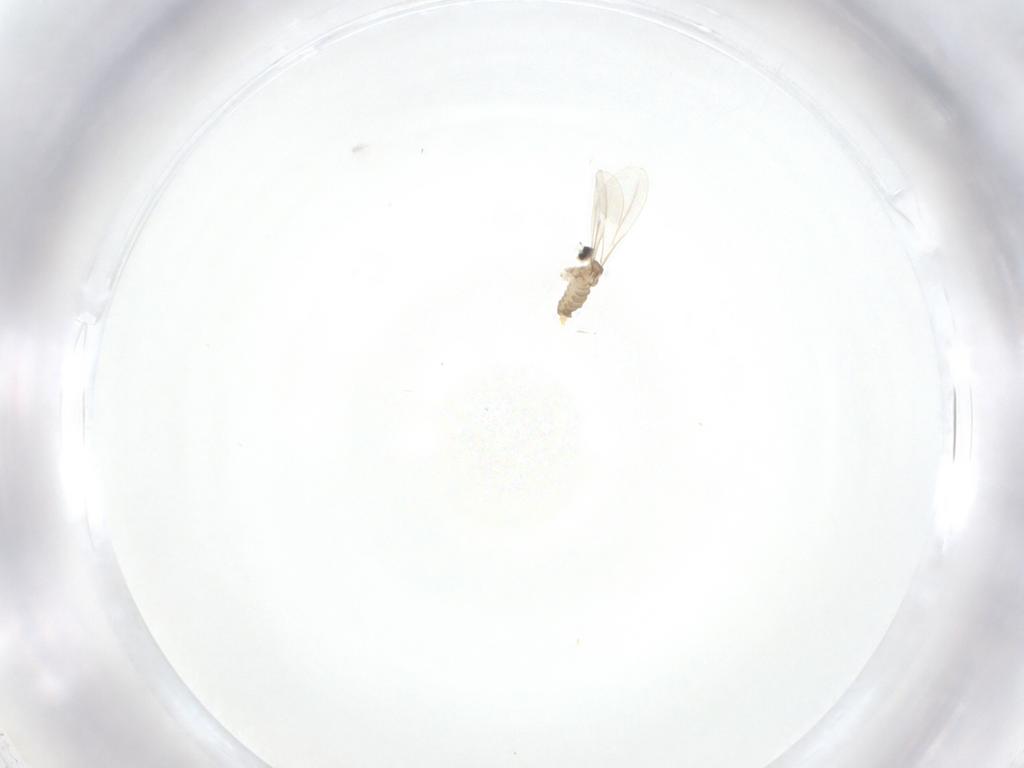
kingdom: Animalia
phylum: Arthropoda
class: Insecta
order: Diptera
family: Cecidomyiidae
